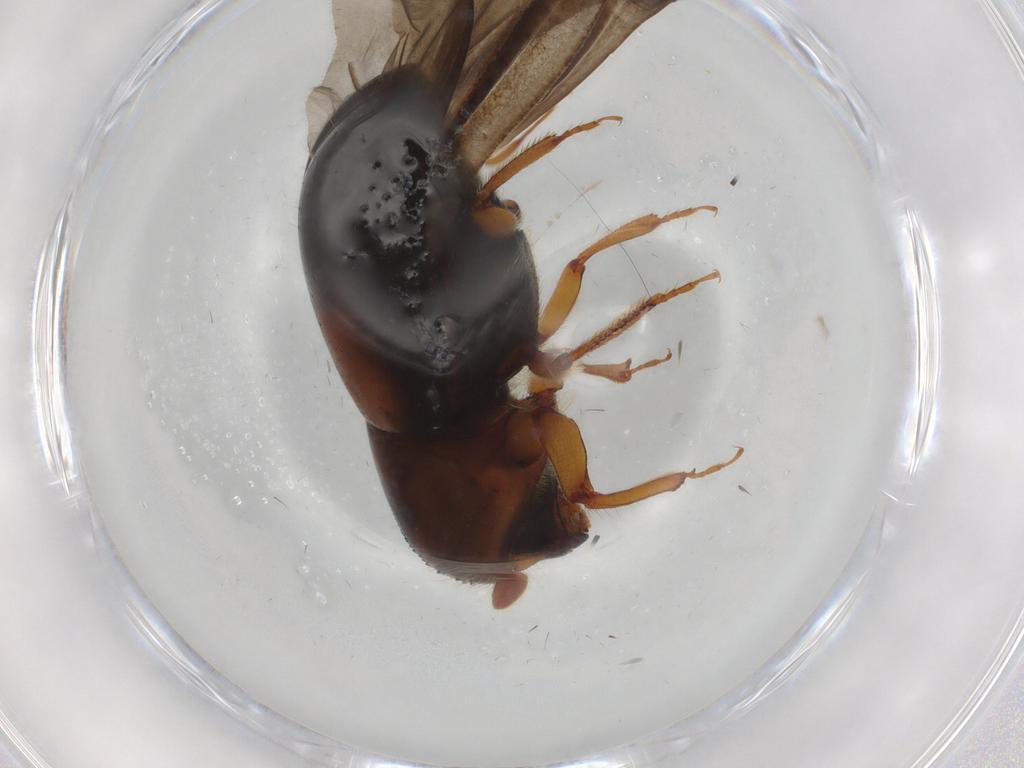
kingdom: Animalia
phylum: Arthropoda
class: Insecta
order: Coleoptera
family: Curculionidae
